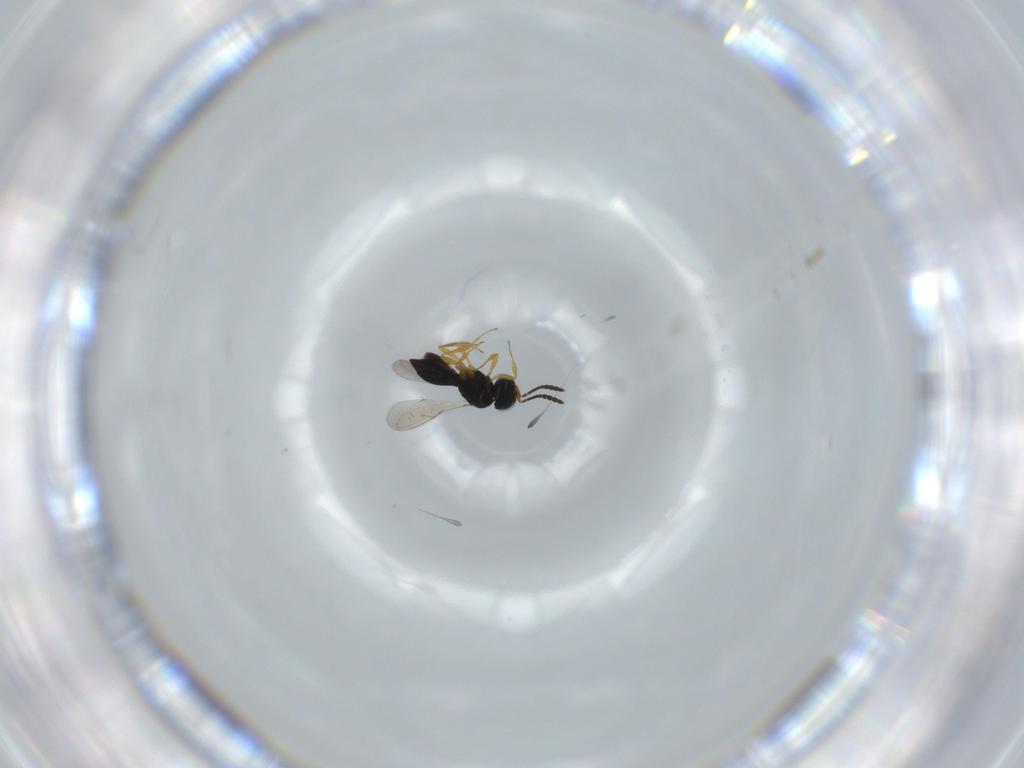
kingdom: Animalia
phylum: Arthropoda
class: Insecta
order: Hymenoptera
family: Scelionidae
